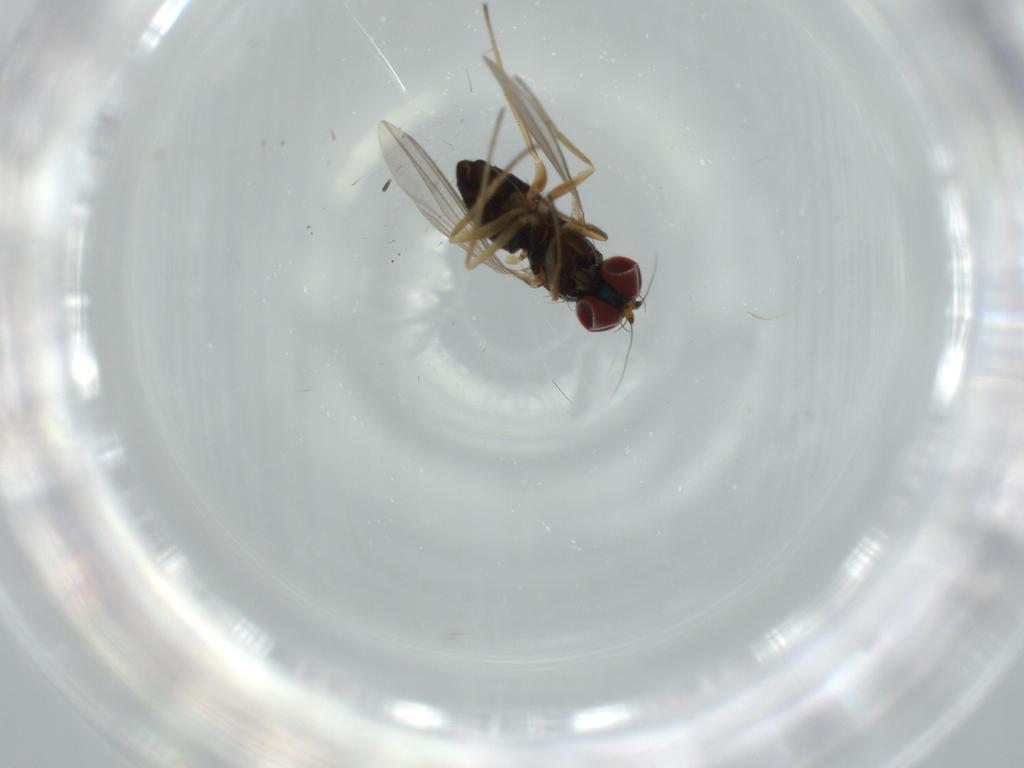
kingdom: Animalia
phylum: Arthropoda
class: Insecta
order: Diptera
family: Dolichopodidae
